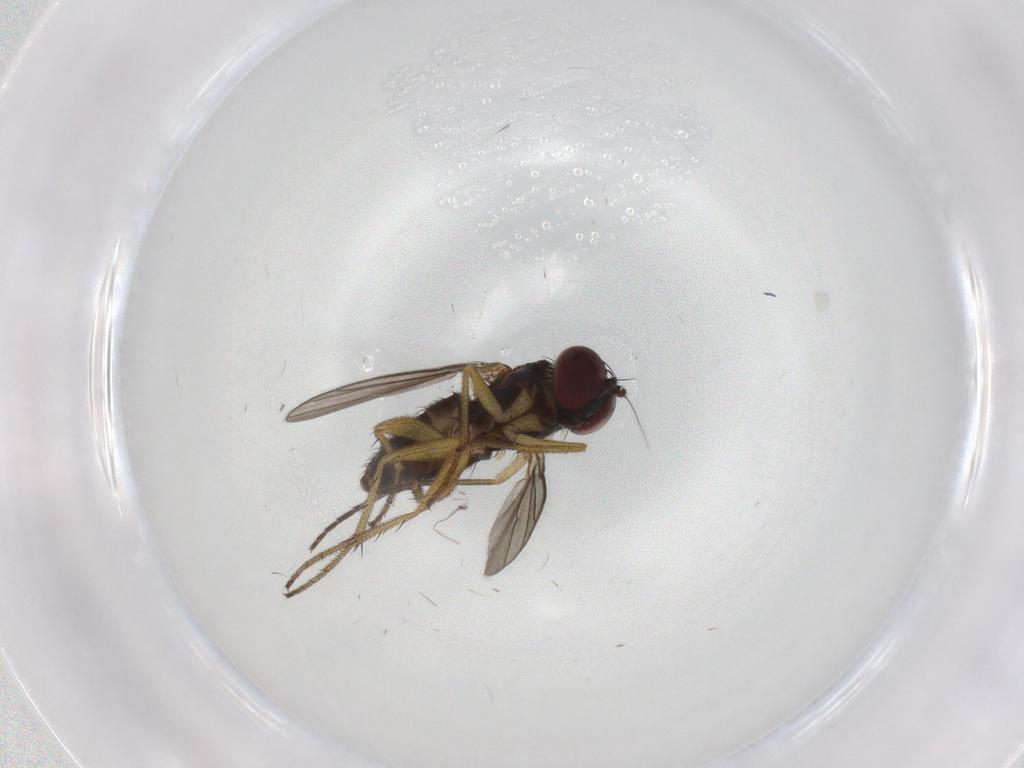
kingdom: Animalia
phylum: Arthropoda
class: Insecta
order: Diptera
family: Sciaridae
